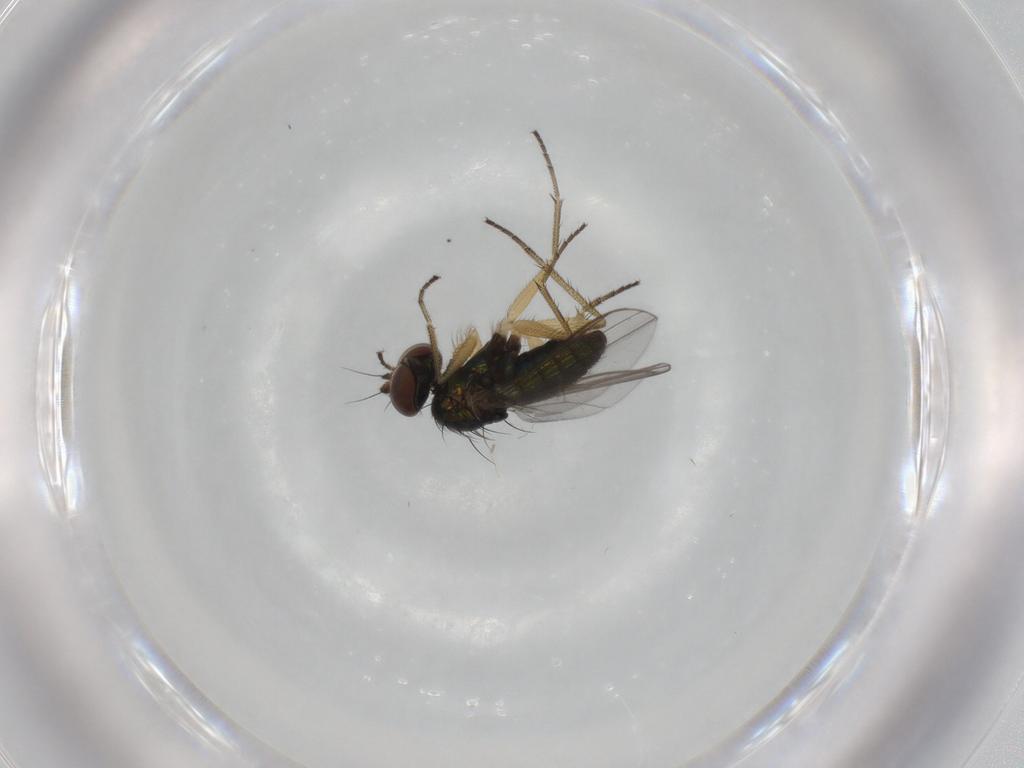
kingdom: Animalia
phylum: Arthropoda
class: Insecta
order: Diptera
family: Dolichopodidae
